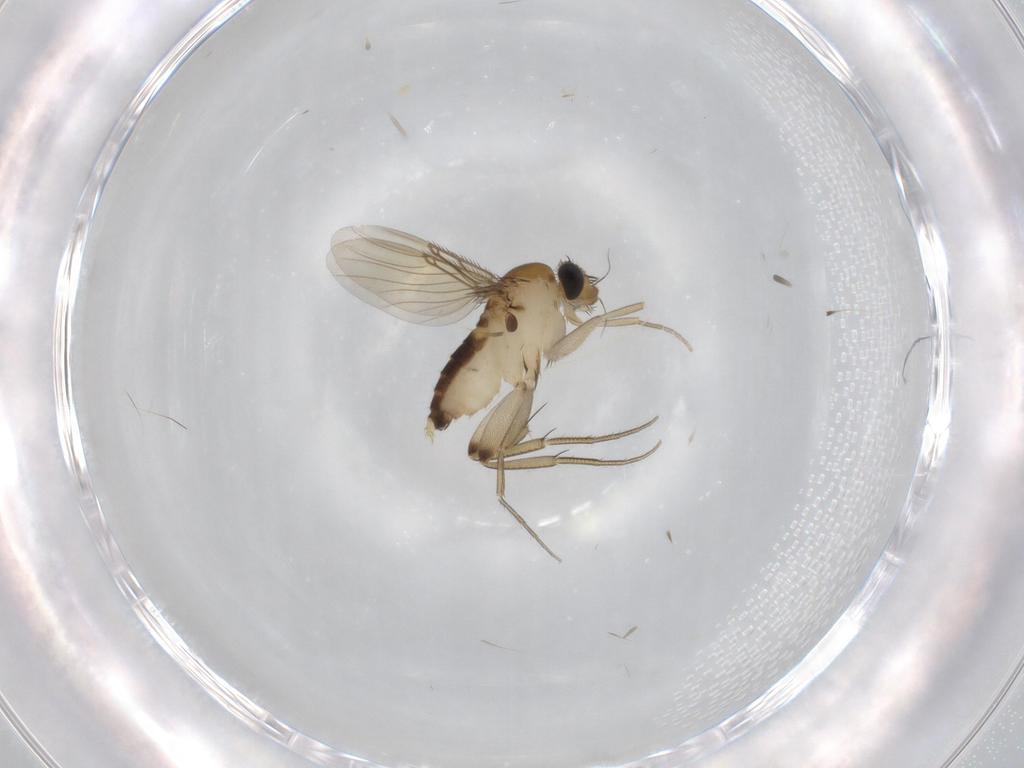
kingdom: Animalia
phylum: Arthropoda
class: Insecta
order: Diptera
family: Phoridae
